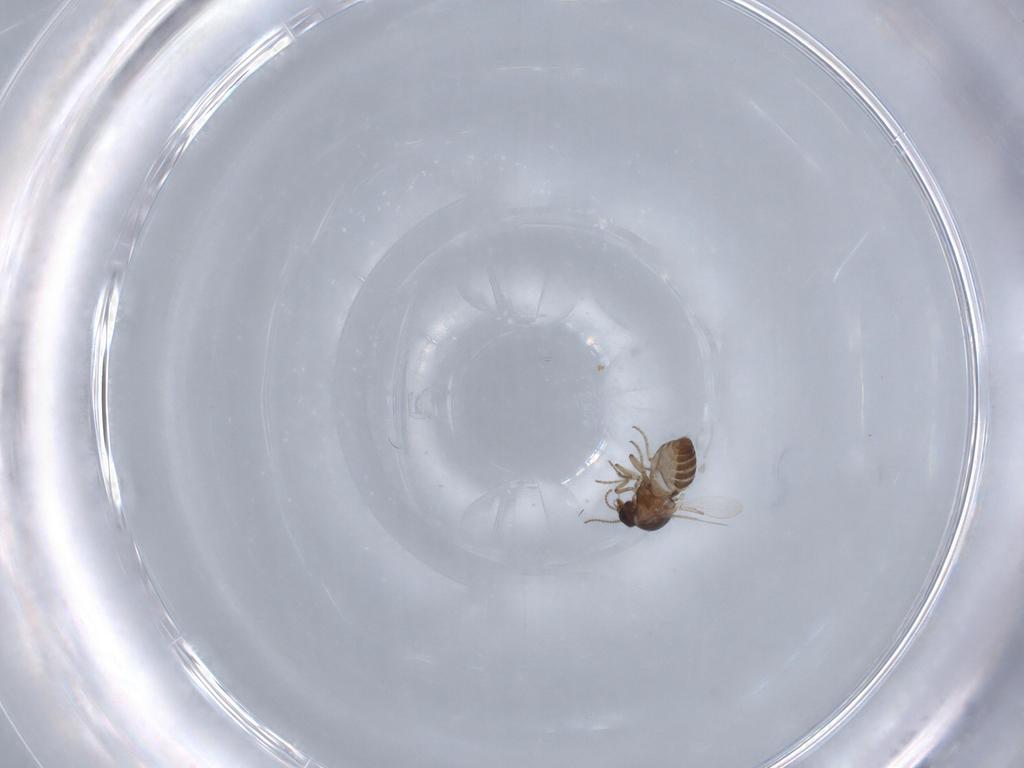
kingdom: Animalia
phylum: Arthropoda
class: Insecta
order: Diptera
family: Ceratopogonidae
